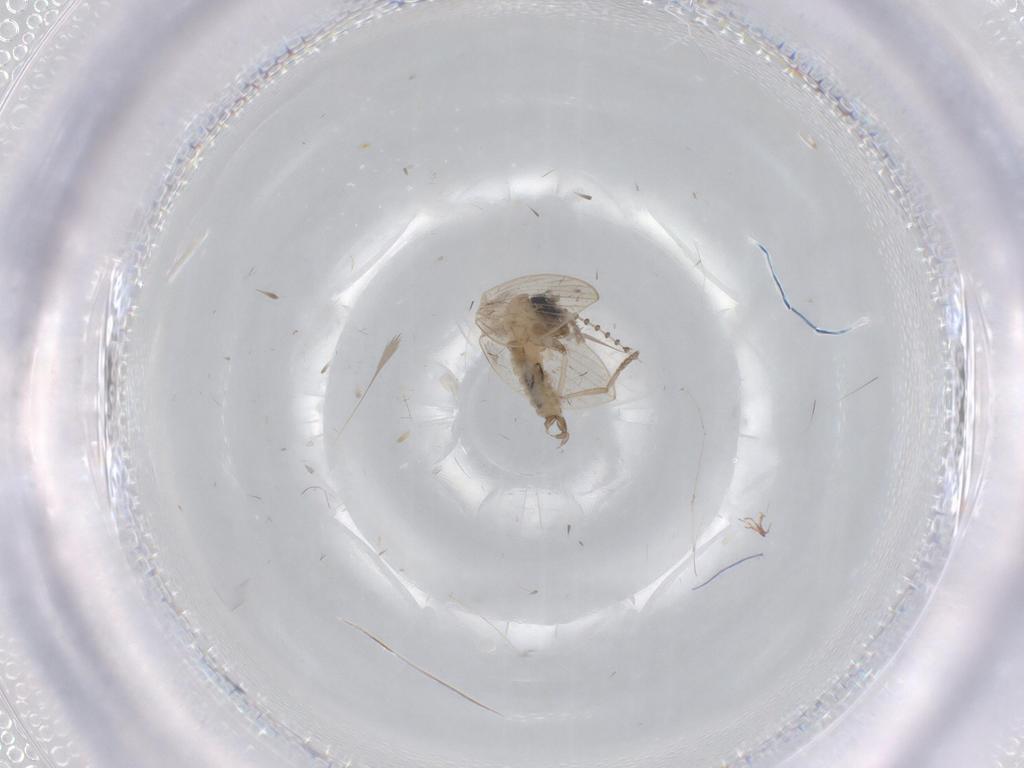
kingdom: Animalia
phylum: Arthropoda
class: Insecta
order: Diptera
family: Psychodidae
